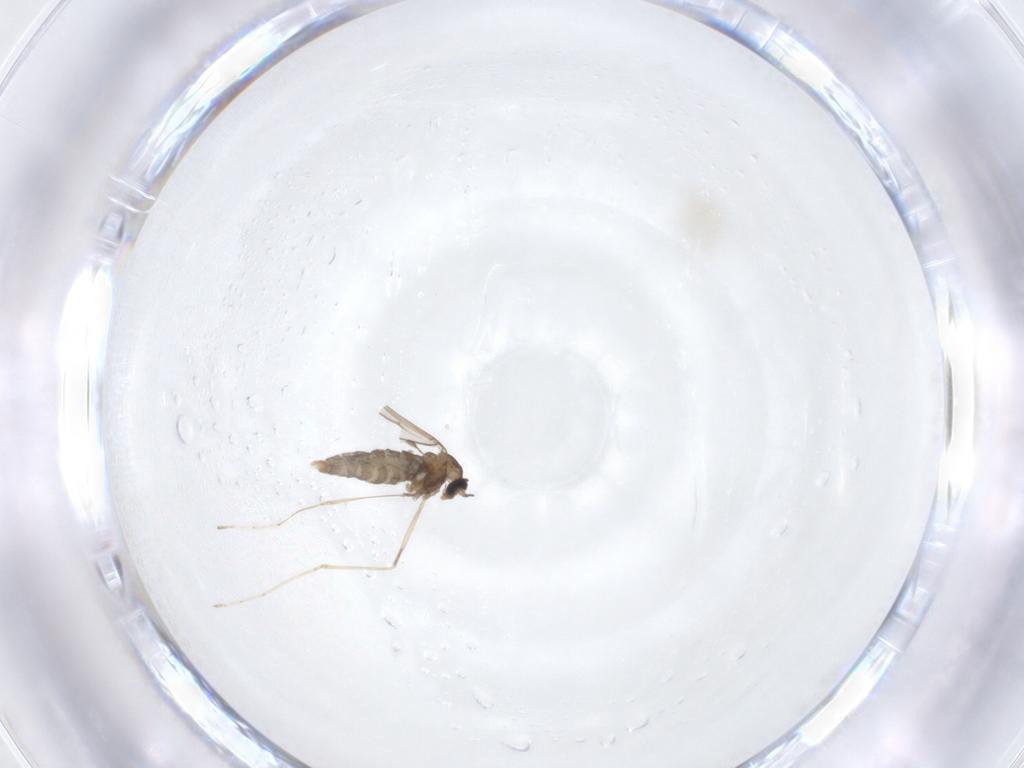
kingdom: Animalia
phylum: Arthropoda
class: Insecta
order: Diptera
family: Cecidomyiidae
